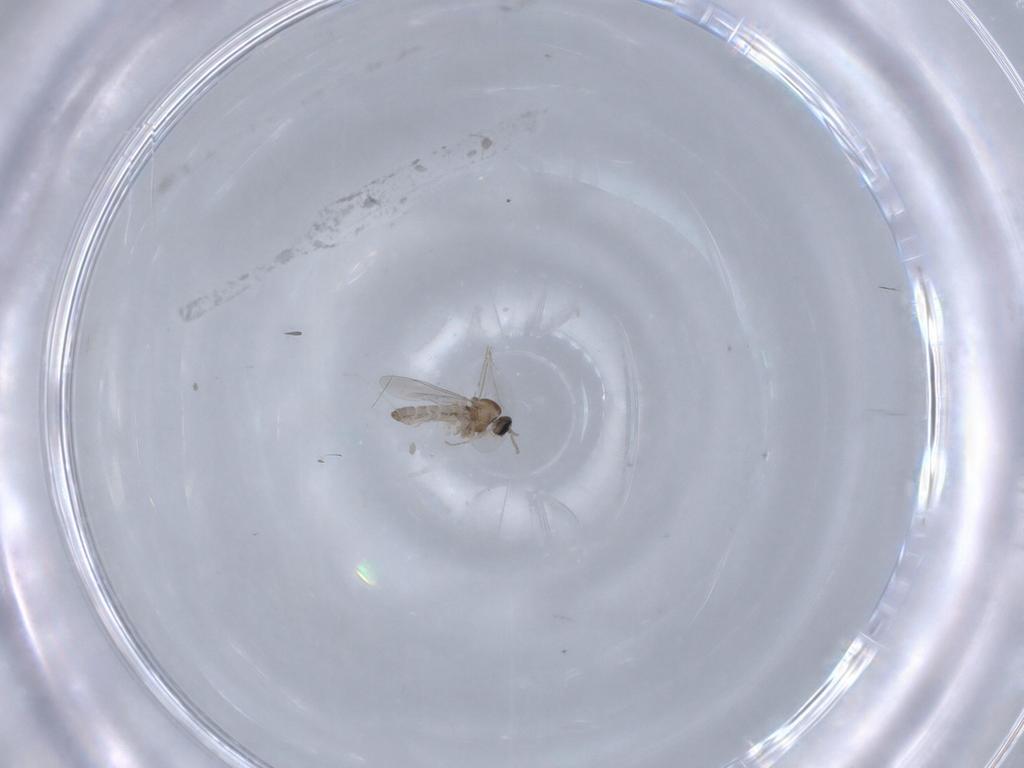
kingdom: Animalia
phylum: Arthropoda
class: Insecta
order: Diptera
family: Cecidomyiidae
